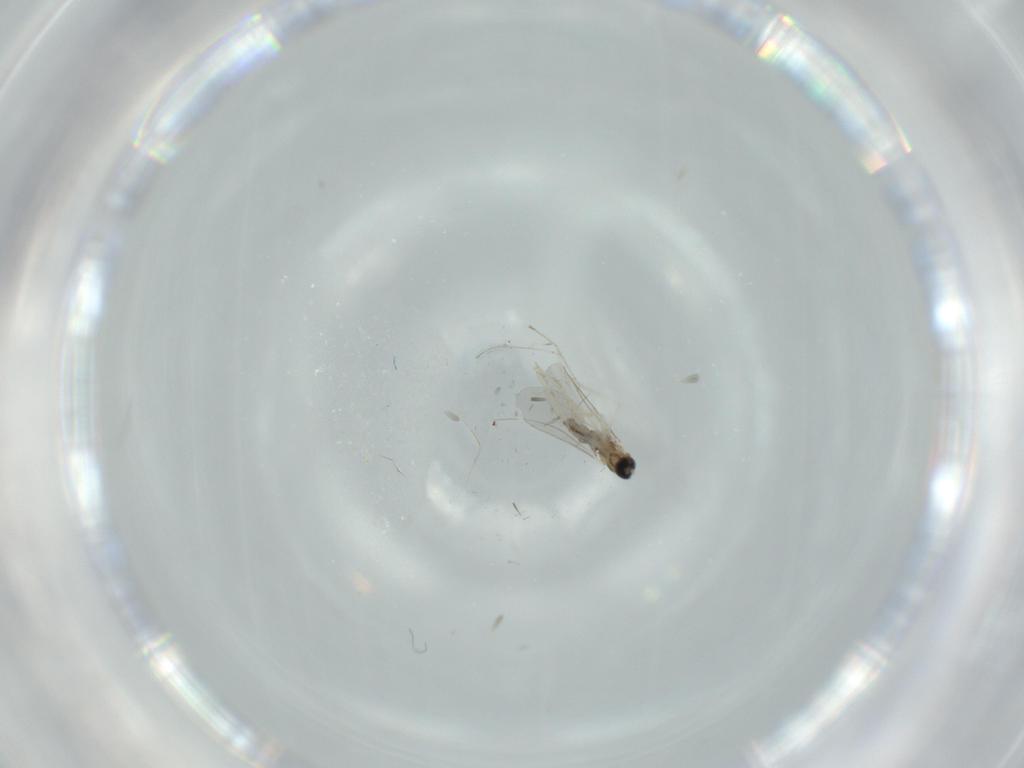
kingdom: Animalia
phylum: Arthropoda
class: Insecta
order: Diptera
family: Cecidomyiidae
